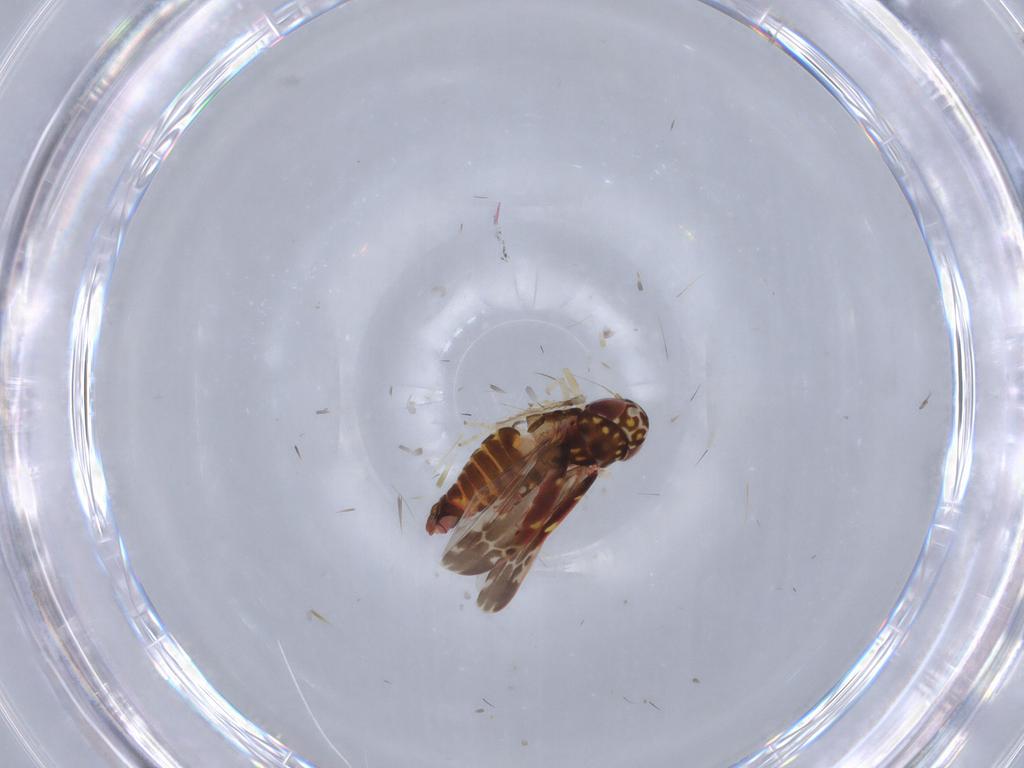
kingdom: Animalia
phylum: Arthropoda
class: Insecta
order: Hemiptera
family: Cicadellidae
